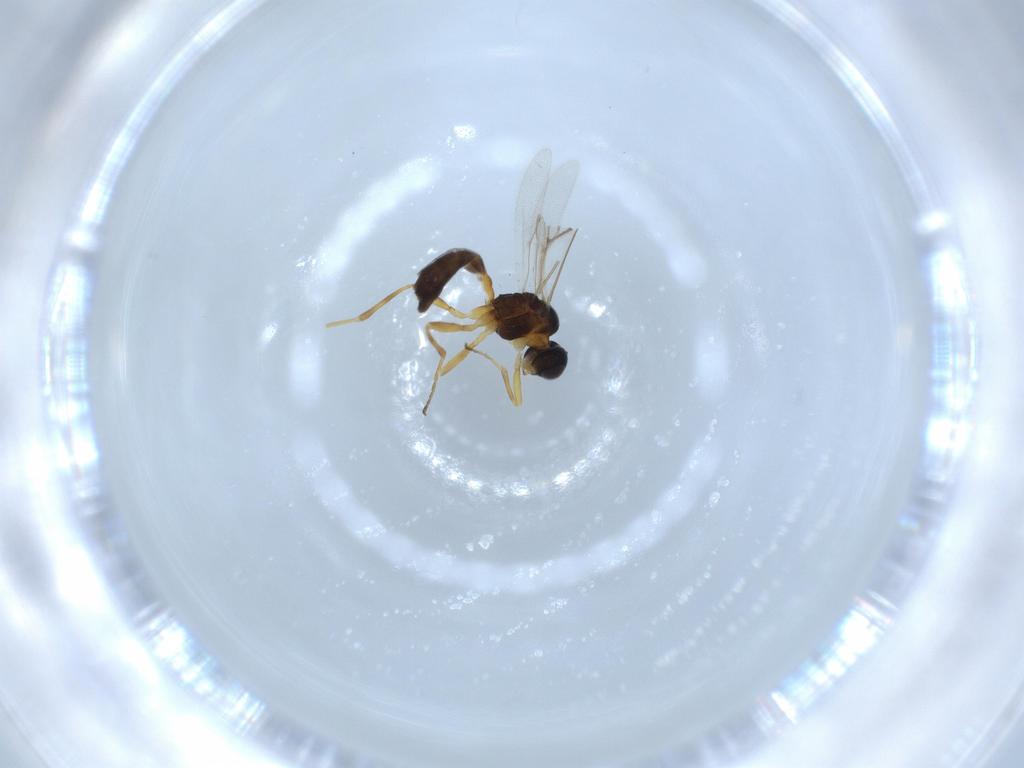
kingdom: Animalia
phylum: Arthropoda
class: Insecta
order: Hymenoptera
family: Braconidae
